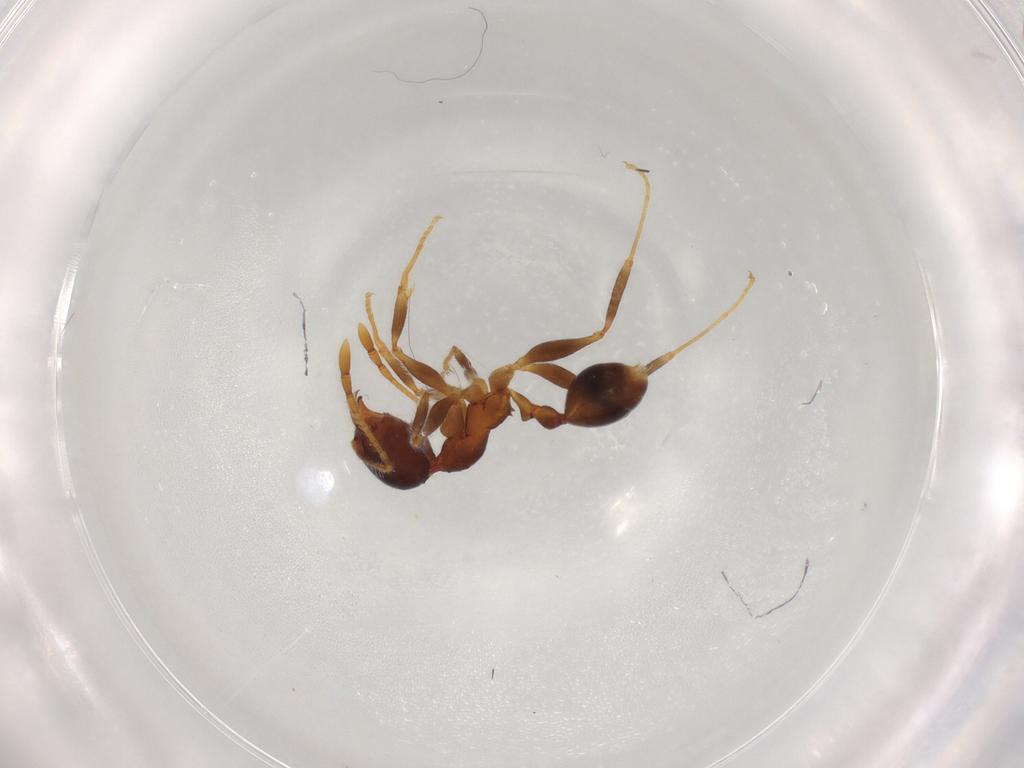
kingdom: Animalia
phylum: Arthropoda
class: Insecta
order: Hymenoptera
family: Formicidae
